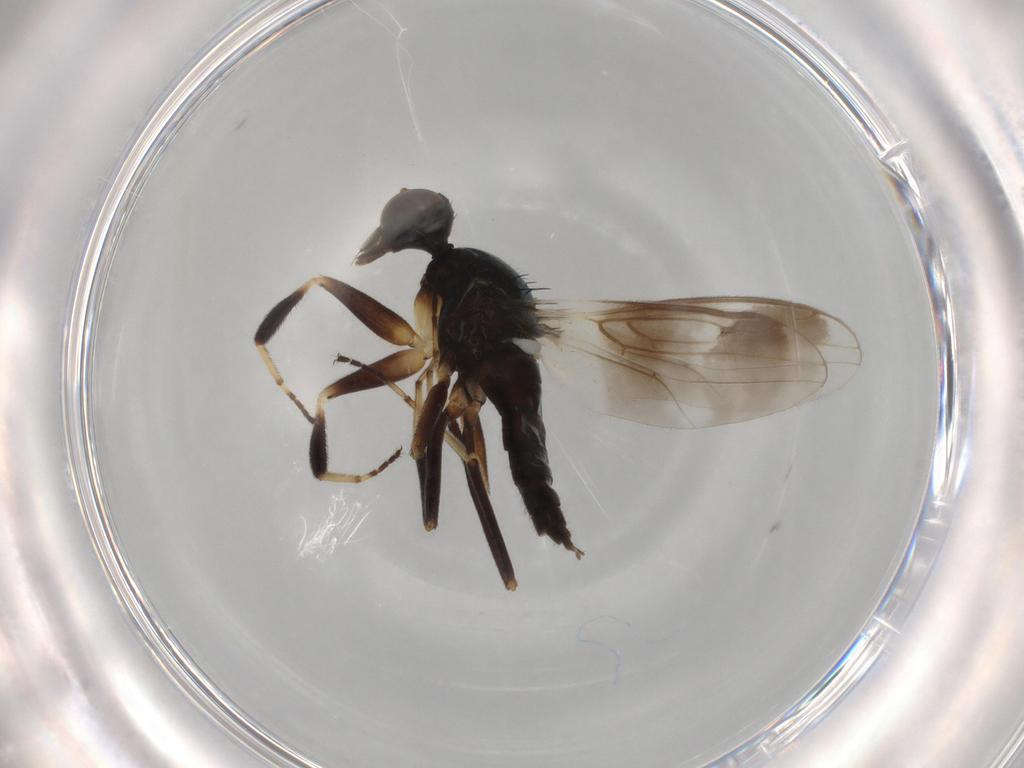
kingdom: Animalia
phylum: Arthropoda
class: Insecta
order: Diptera
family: Hybotidae
